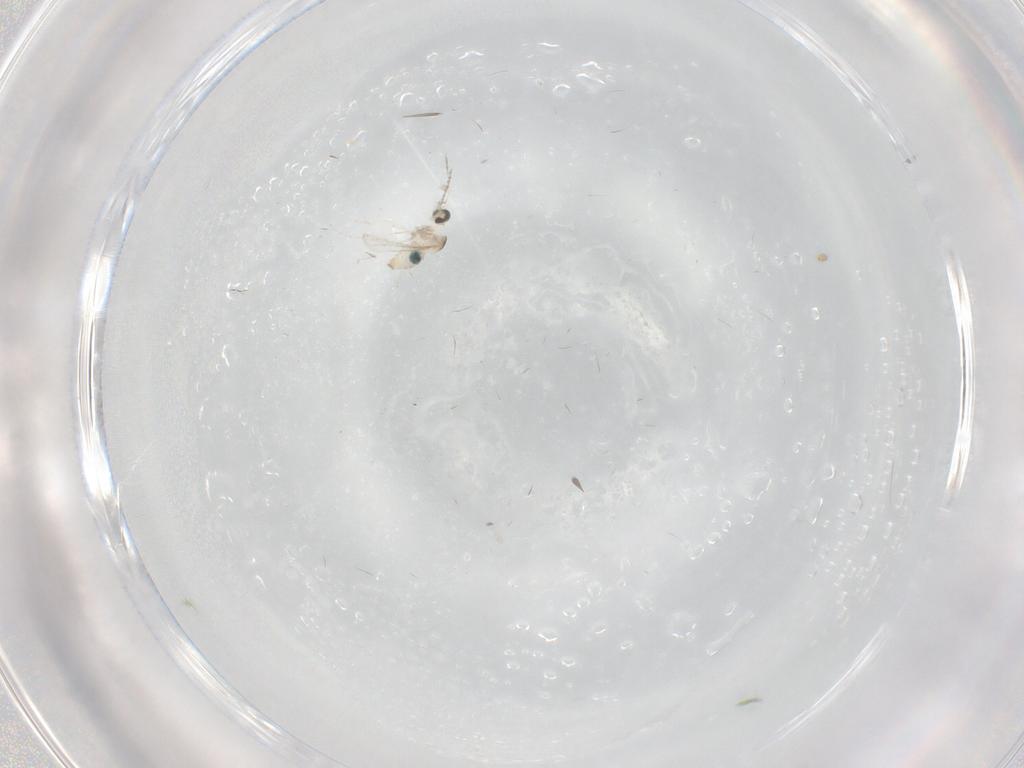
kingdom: Animalia
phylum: Arthropoda
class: Insecta
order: Diptera
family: Cecidomyiidae
